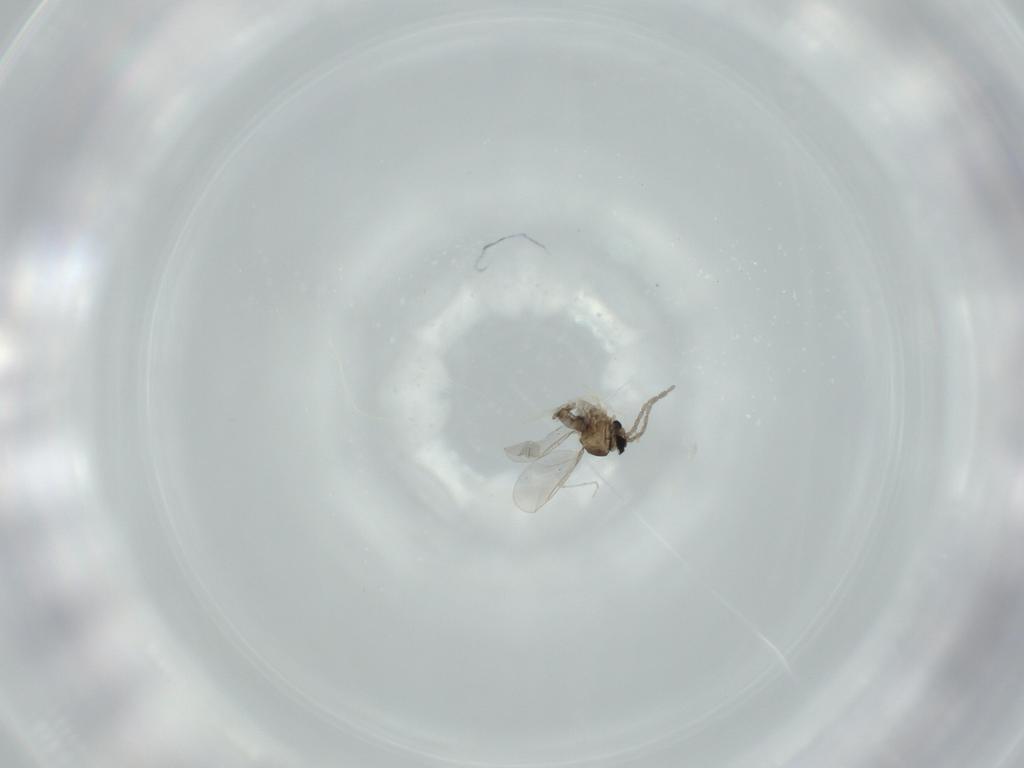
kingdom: Animalia
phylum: Arthropoda
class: Insecta
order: Diptera
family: Cecidomyiidae
